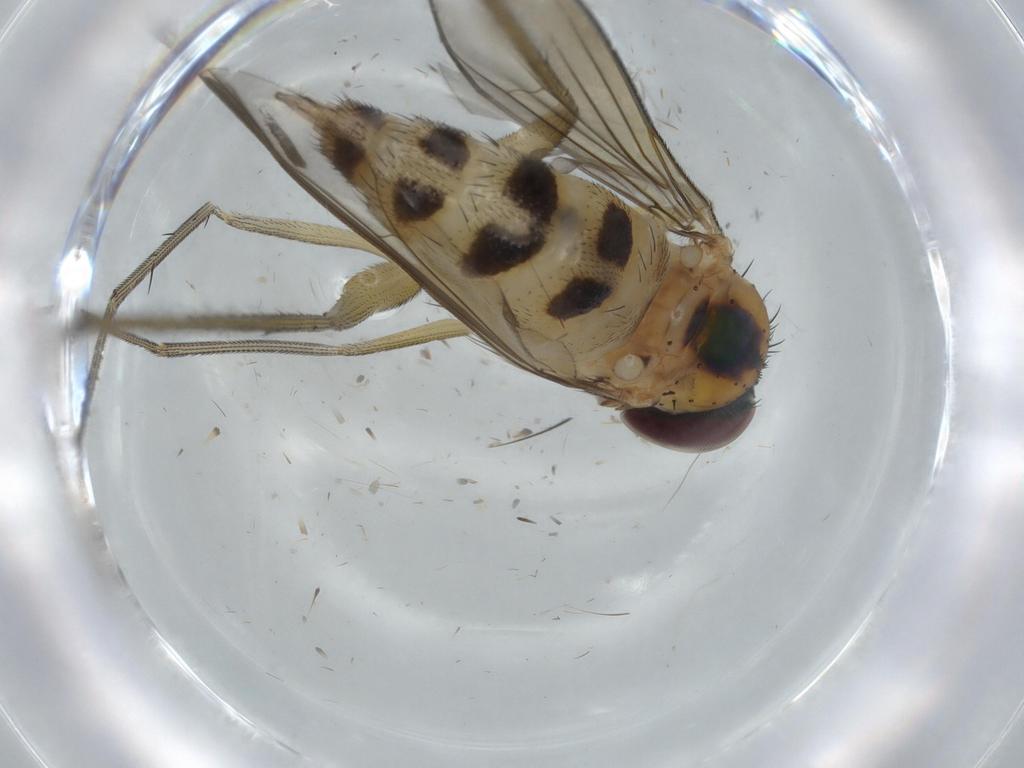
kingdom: Animalia
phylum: Arthropoda
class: Insecta
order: Diptera
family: Dolichopodidae
